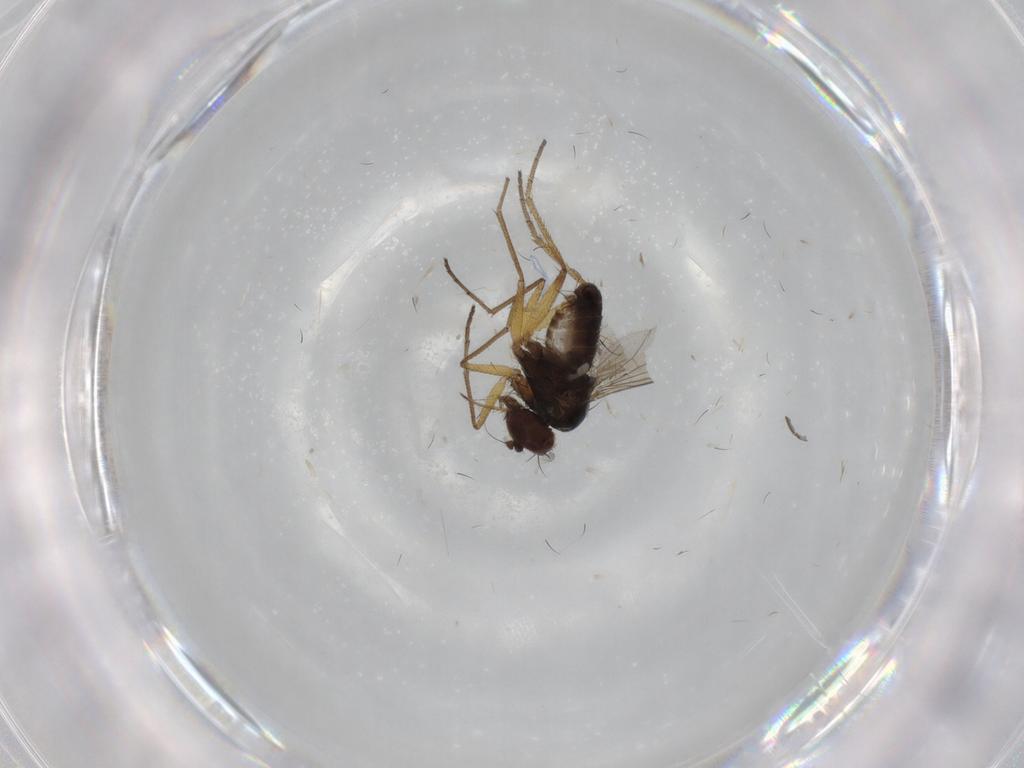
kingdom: Animalia
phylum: Arthropoda
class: Insecta
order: Diptera
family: Dolichopodidae
